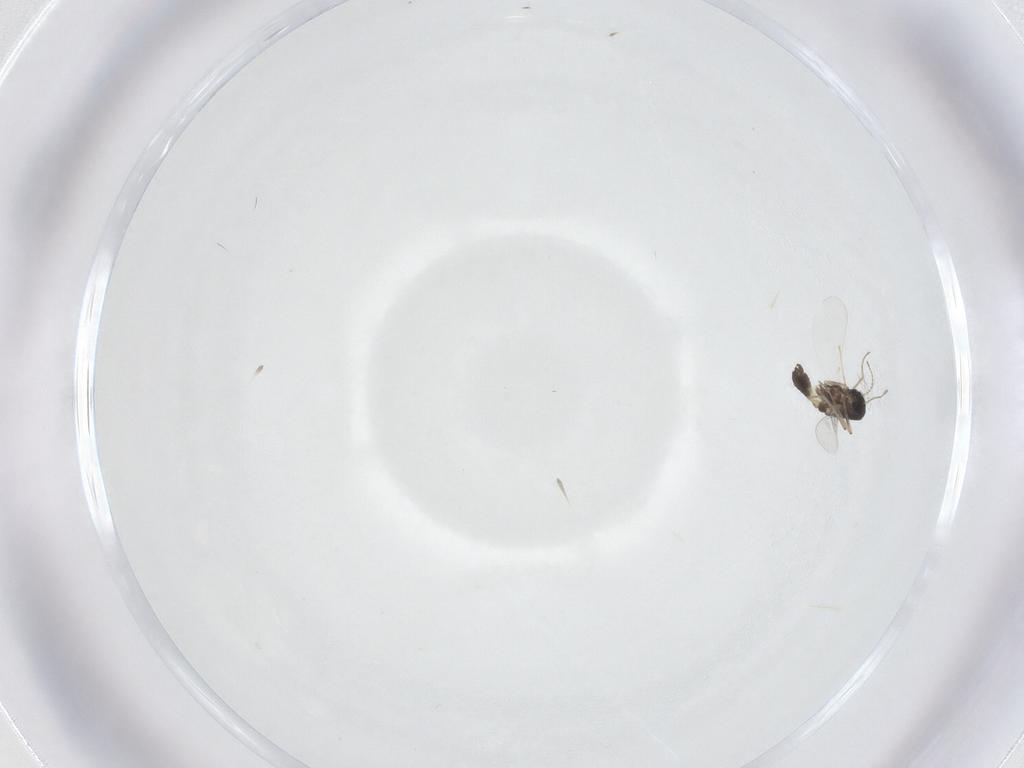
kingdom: Animalia
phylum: Arthropoda
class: Insecta
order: Diptera
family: Chironomidae
